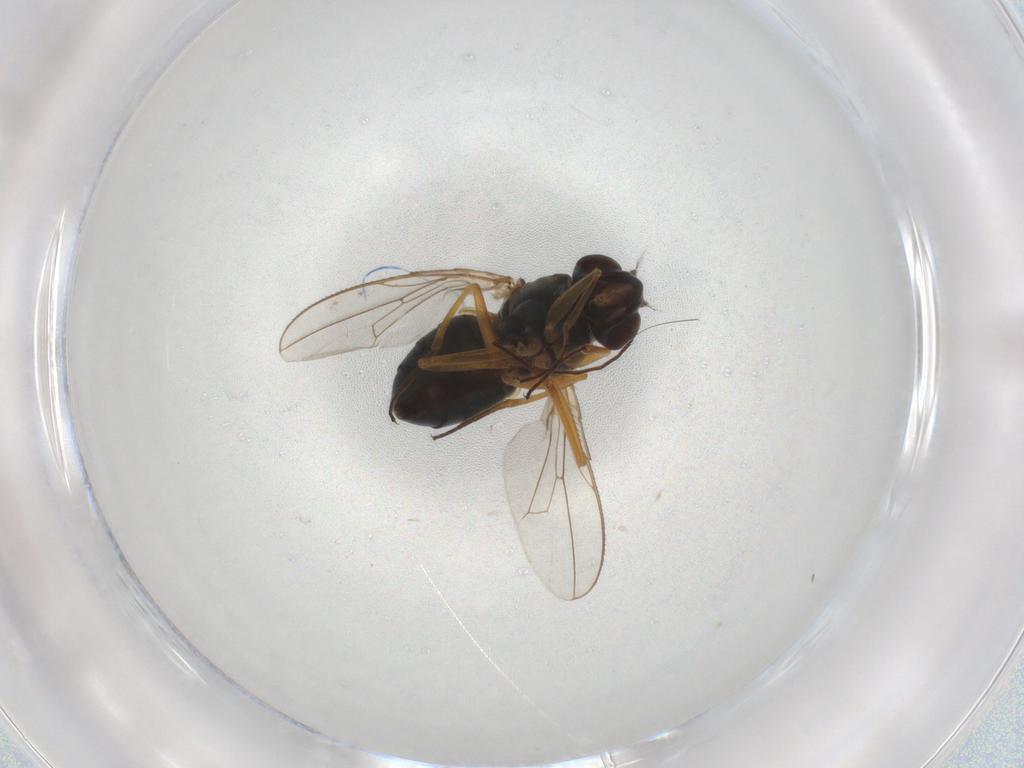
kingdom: Animalia
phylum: Arthropoda
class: Insecta
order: Diptera
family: Ephydridae
